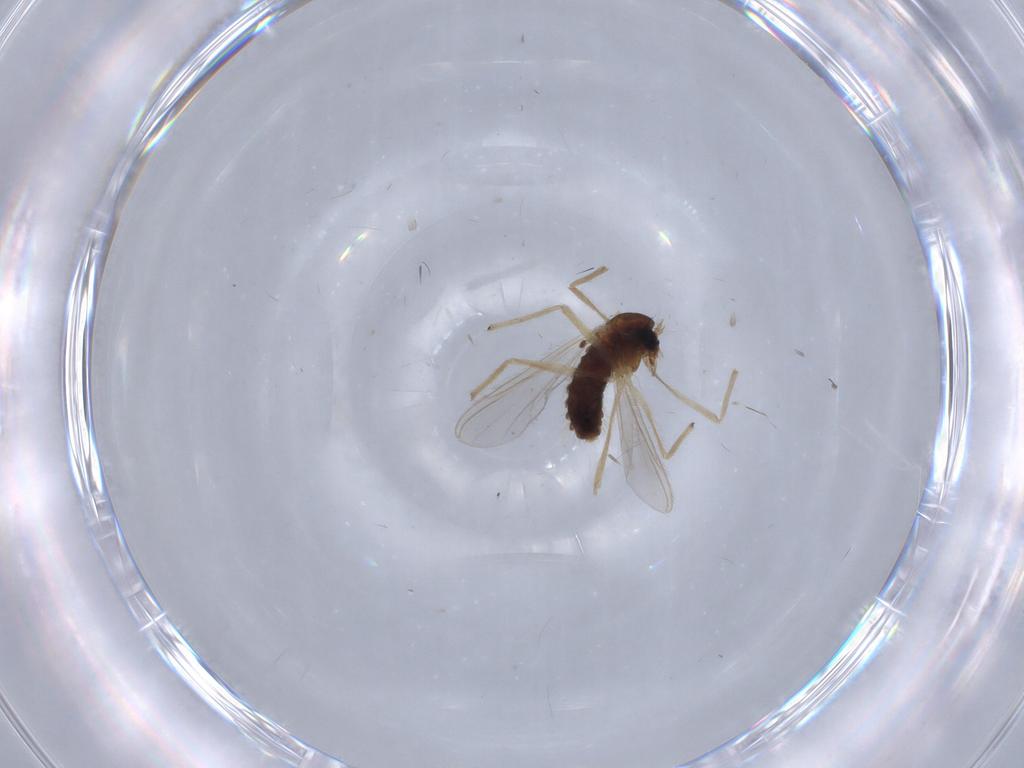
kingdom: Animalia
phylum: Arthropoda
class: Insecta
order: Diptera
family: Chironomidae
